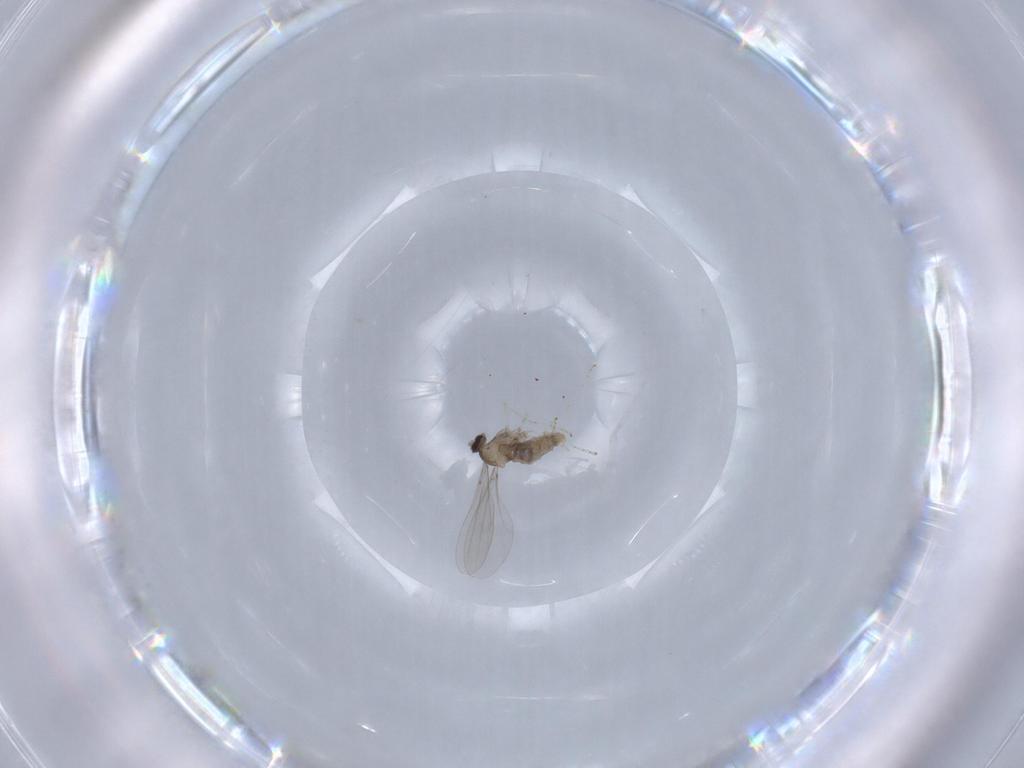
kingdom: Animalia
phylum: Arthropoda
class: Insecta
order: Diptera
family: Cecidomyiidae
